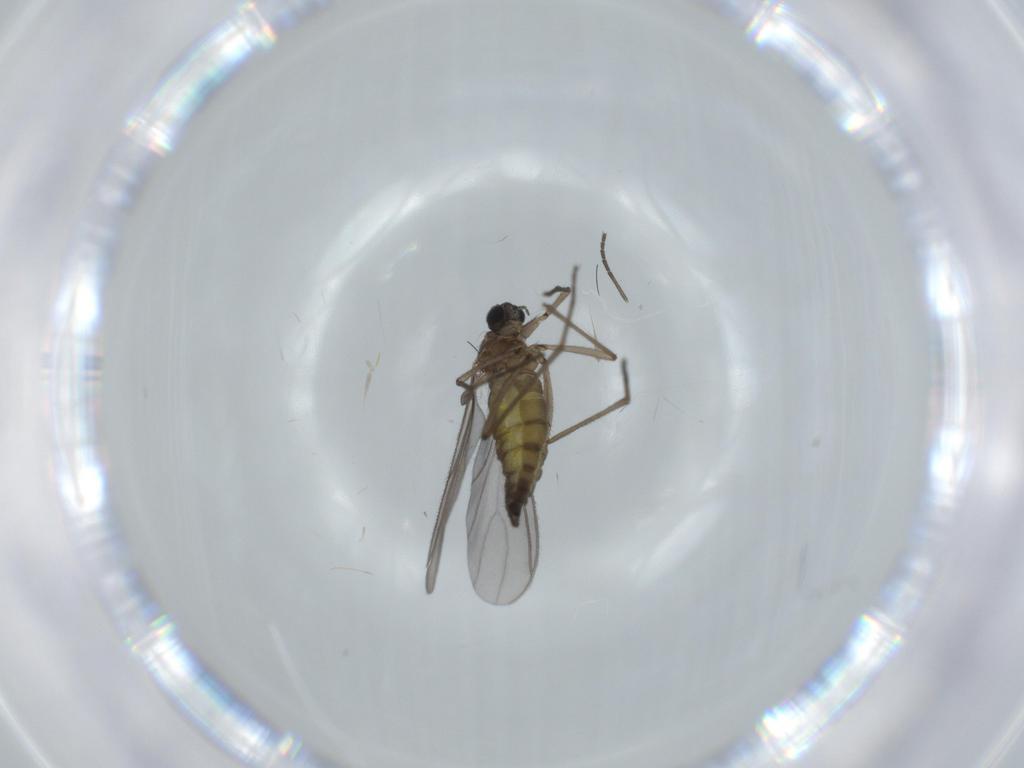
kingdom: Animalia
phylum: Arthropoda
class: Insecta
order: Diptera
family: Sciaridae
